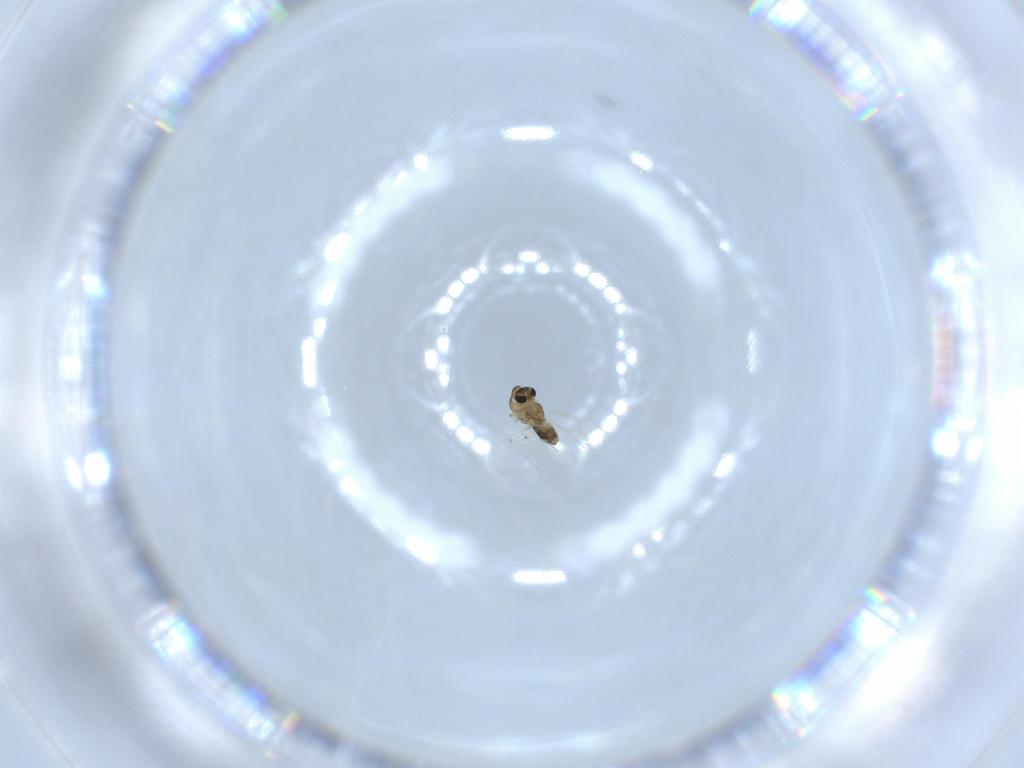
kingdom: Animalia
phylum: Arthropoda
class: Insecta
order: Diptera
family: Chironomidae
